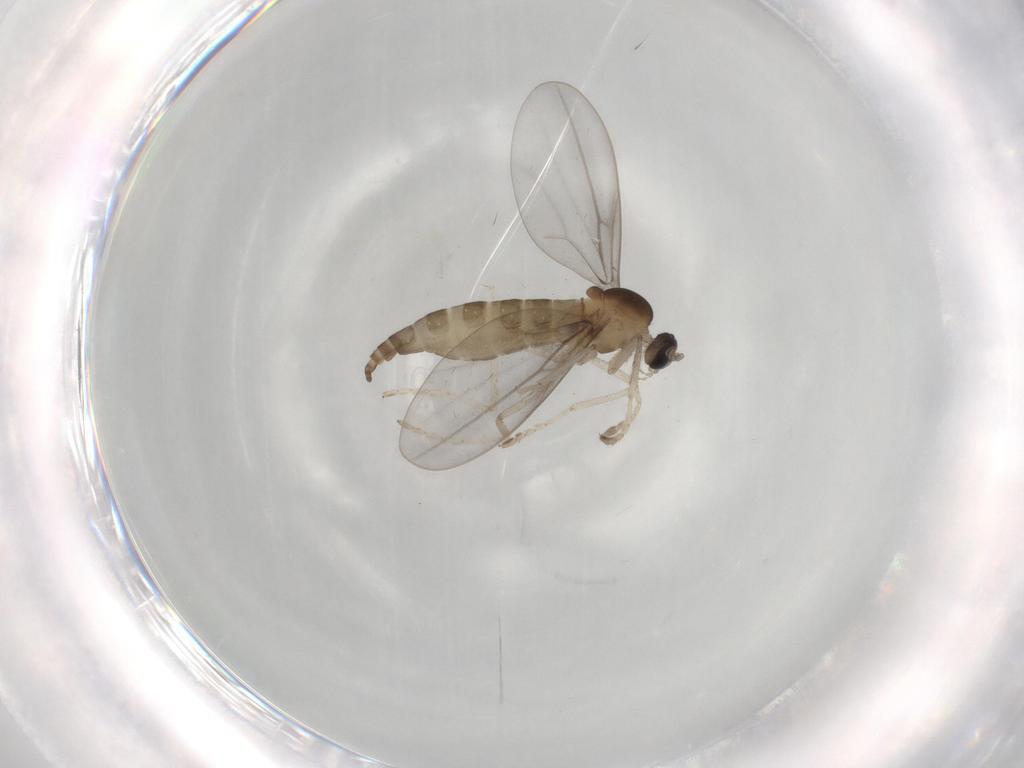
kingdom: Animalia
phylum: Arthropoda
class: Insecta
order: Diptera
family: Cecidomyiidae
